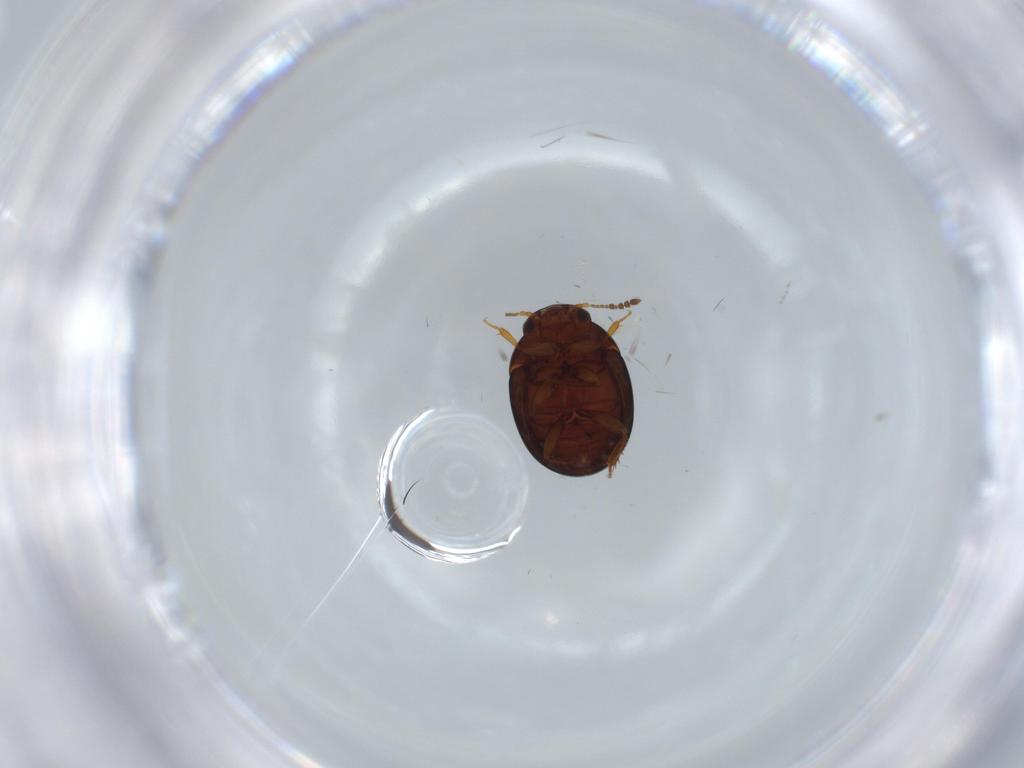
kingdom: Animalia
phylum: Arthropoda
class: Insecta
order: Coleoptera
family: Leiodidae
